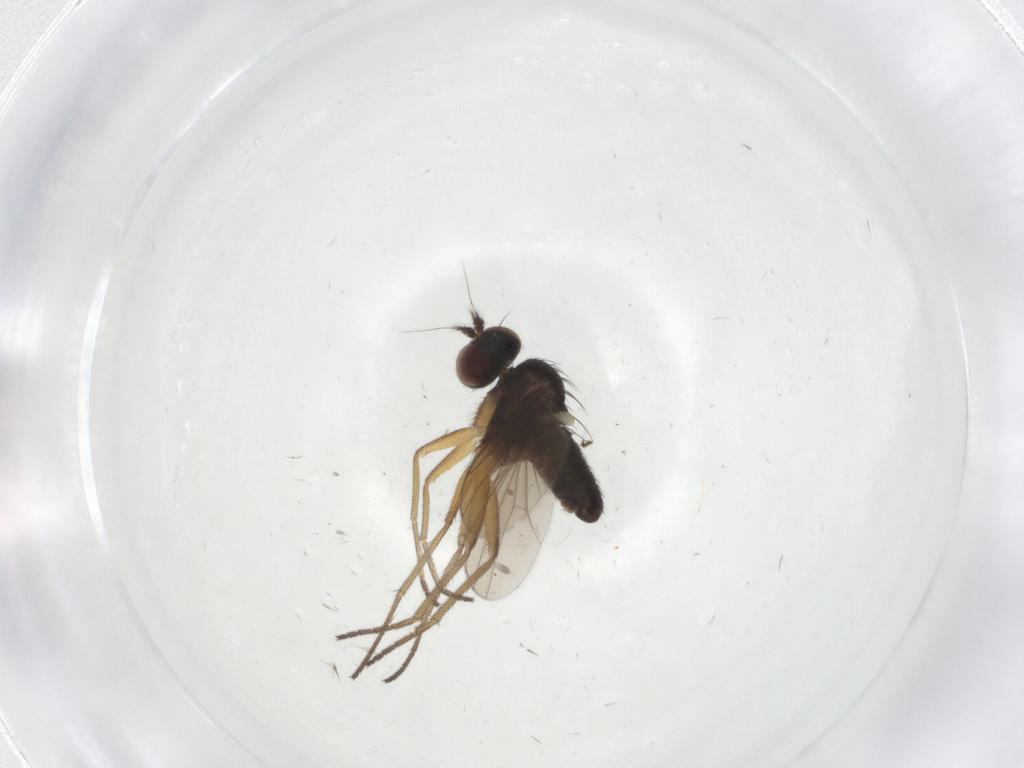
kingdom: Animalia
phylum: Arthropoda
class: Insecta
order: Diptera
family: Dolichopodidae
